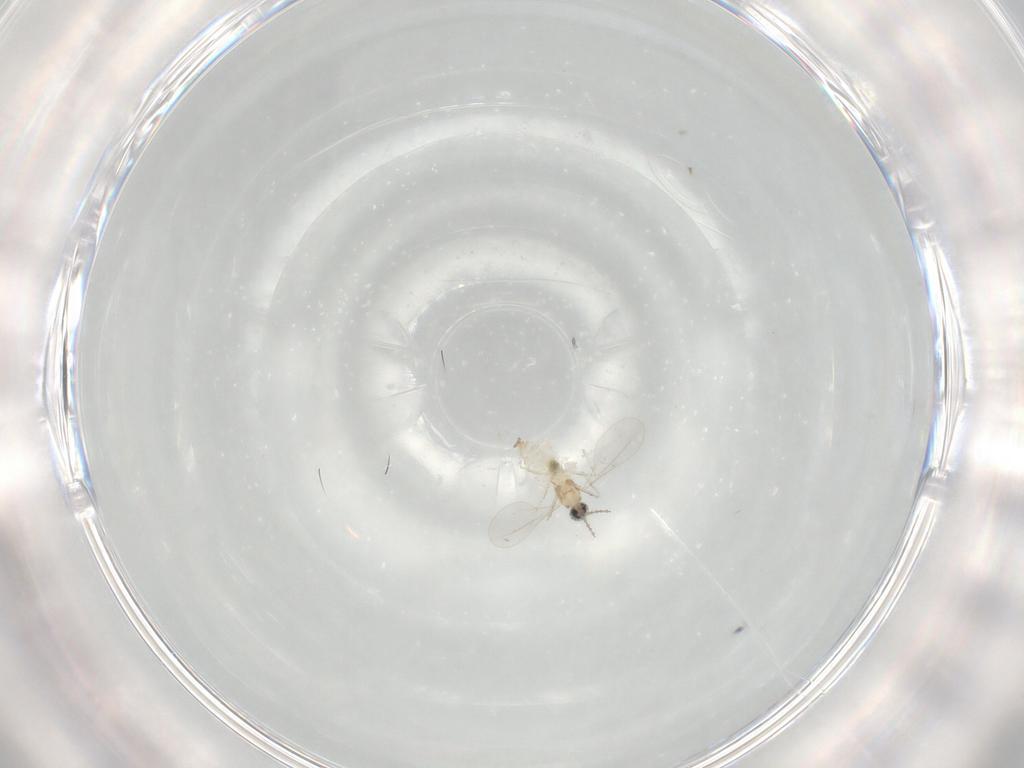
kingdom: Animalia
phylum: Arthropoda
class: Insecta
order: Diptera
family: Cecidomyiidae
